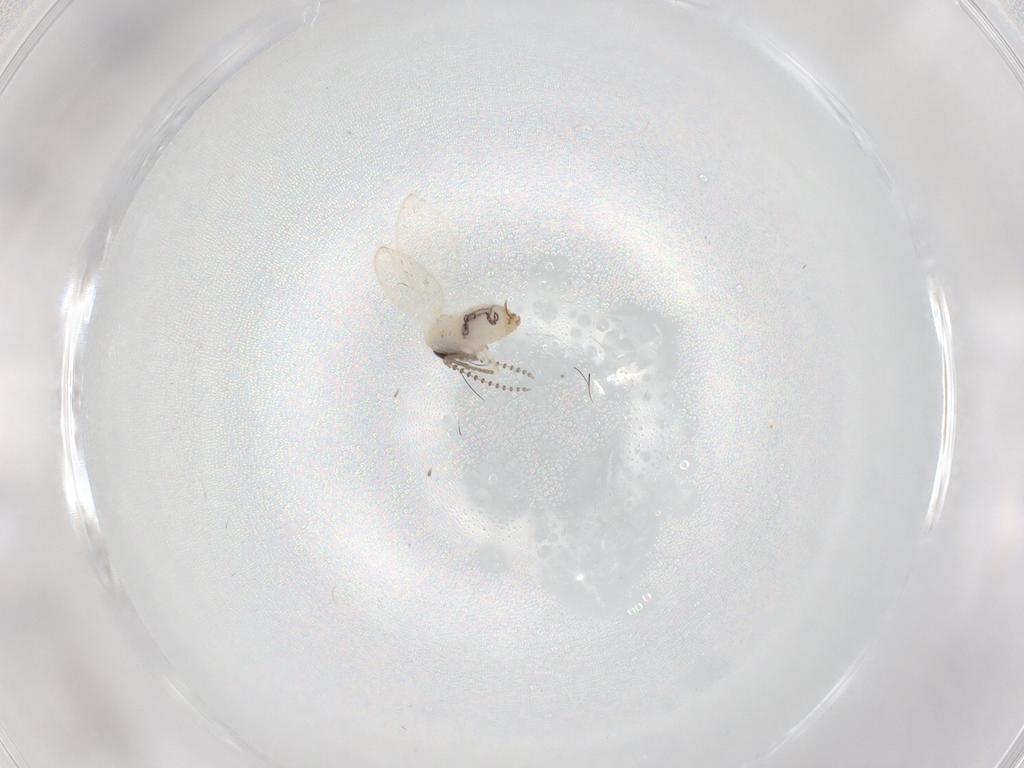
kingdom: Animalia
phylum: Arthropoda
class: Insecta
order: Diptera
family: Psychodidae
